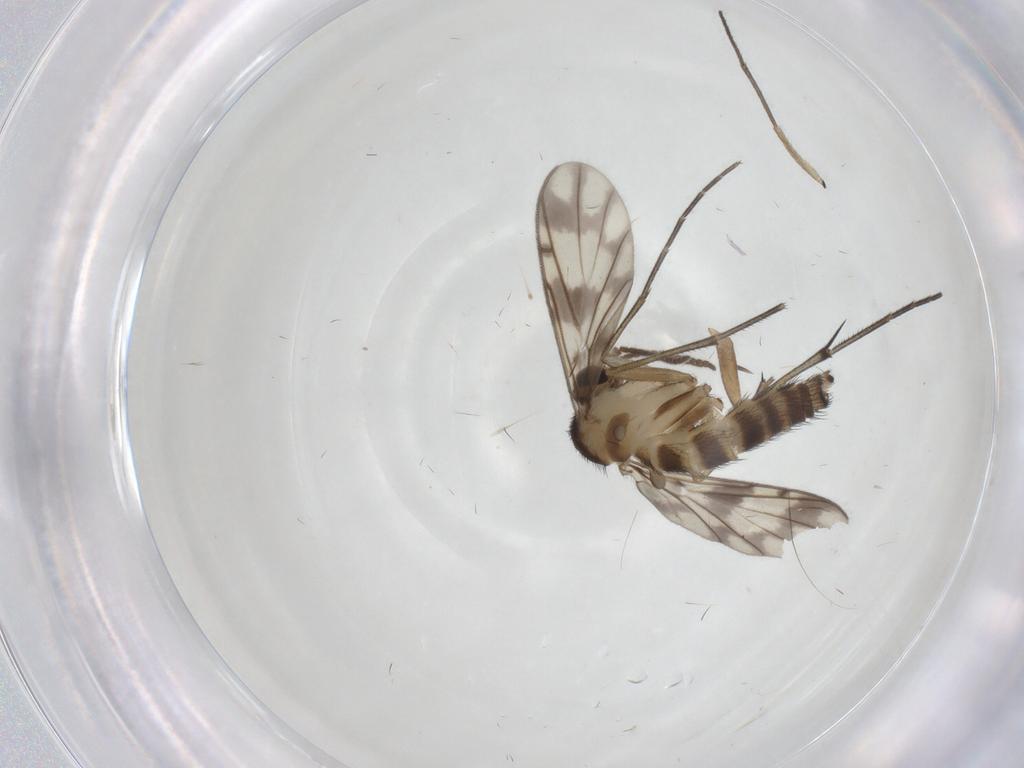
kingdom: Animalia
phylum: Arthropoda
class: Insecta
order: Diptera
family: Keroplatidae
